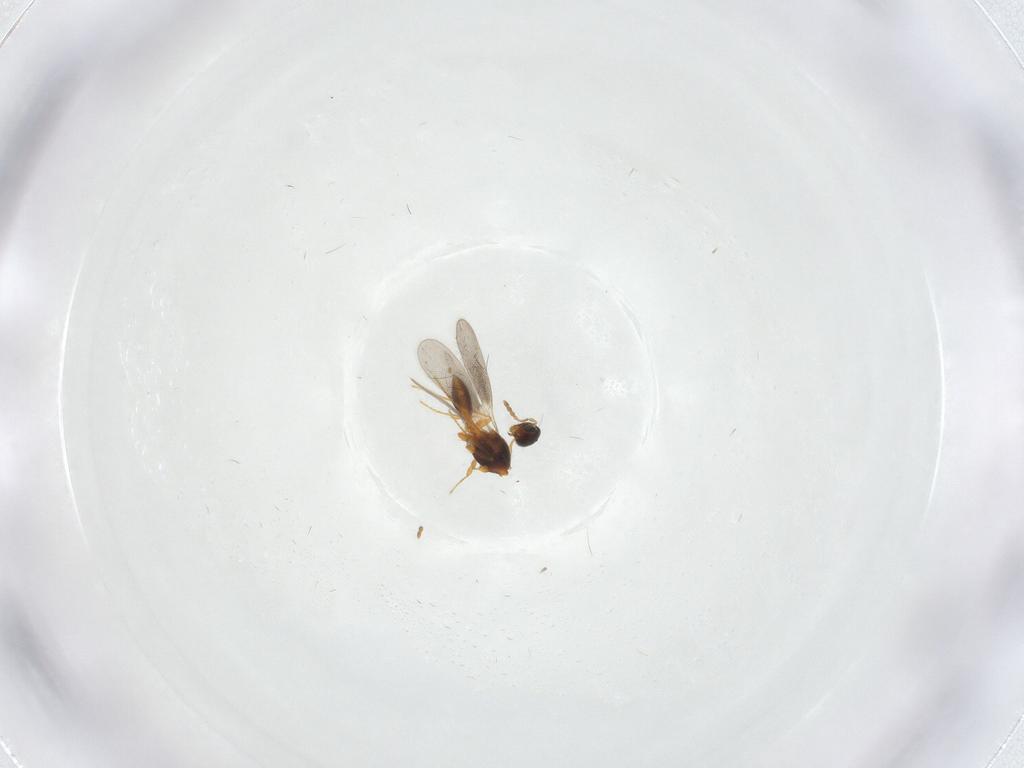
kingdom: Animalia
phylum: Arthropoda
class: Insecta
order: Hymenoptera
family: Platygastridae
